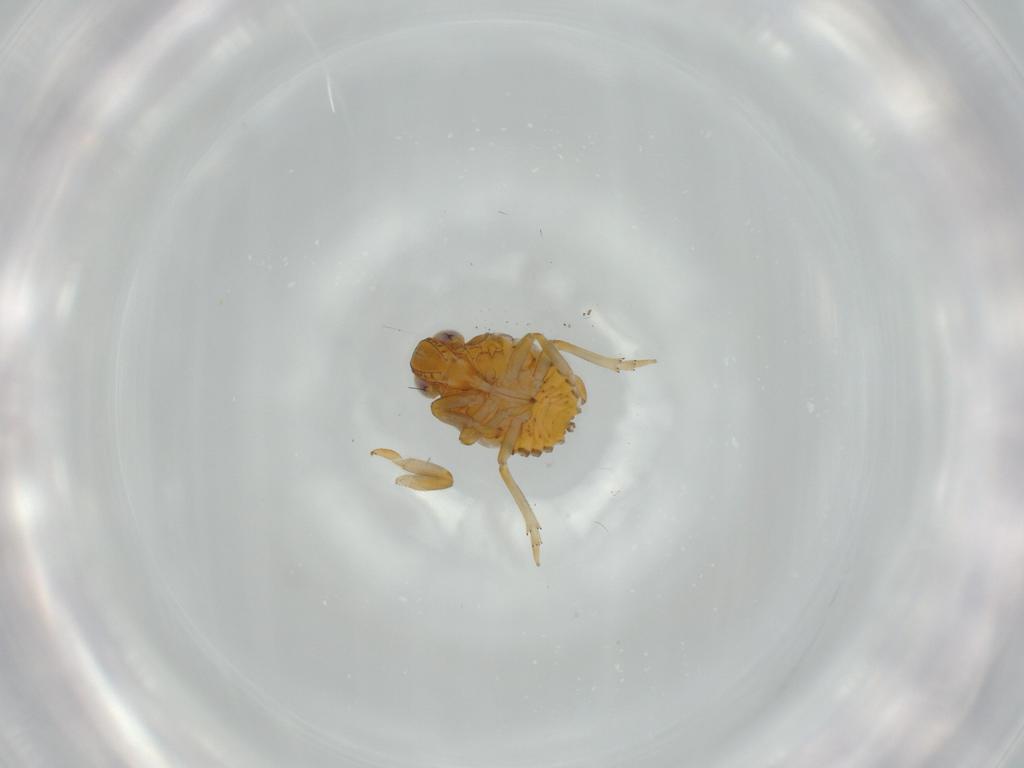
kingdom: Animalia
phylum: Arthropoda
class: Insecta
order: Hemiptera
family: Issidae
